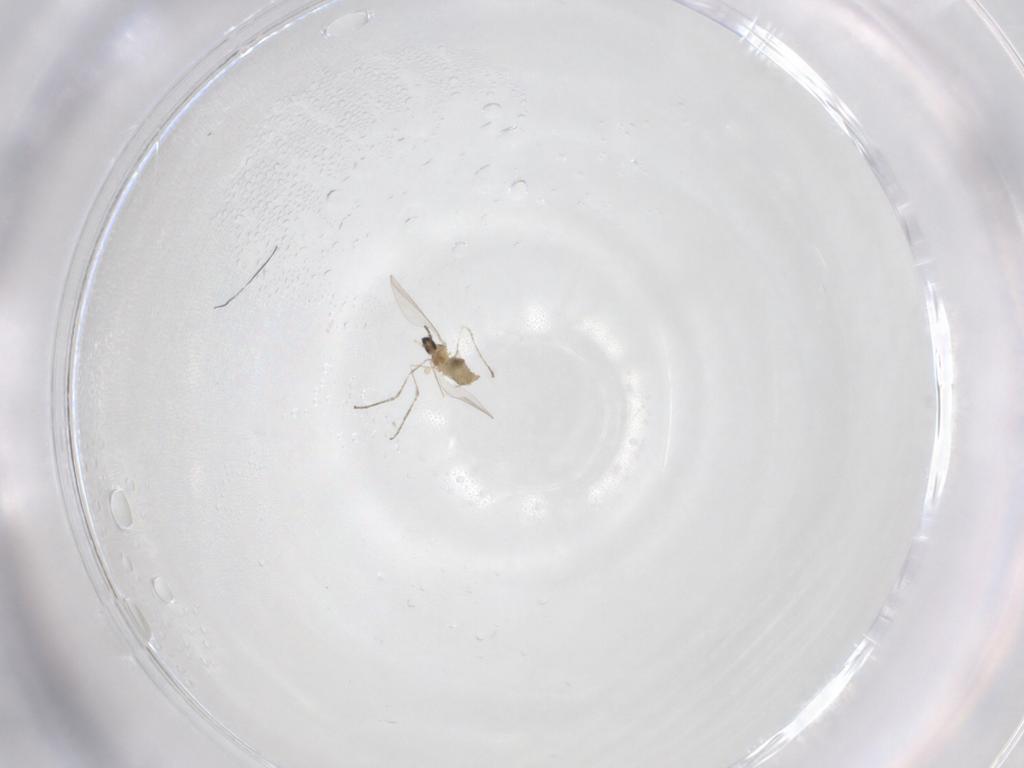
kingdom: Animalia
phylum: Arthropoda
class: Insecta
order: Diptera
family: Cecidomyiidae
